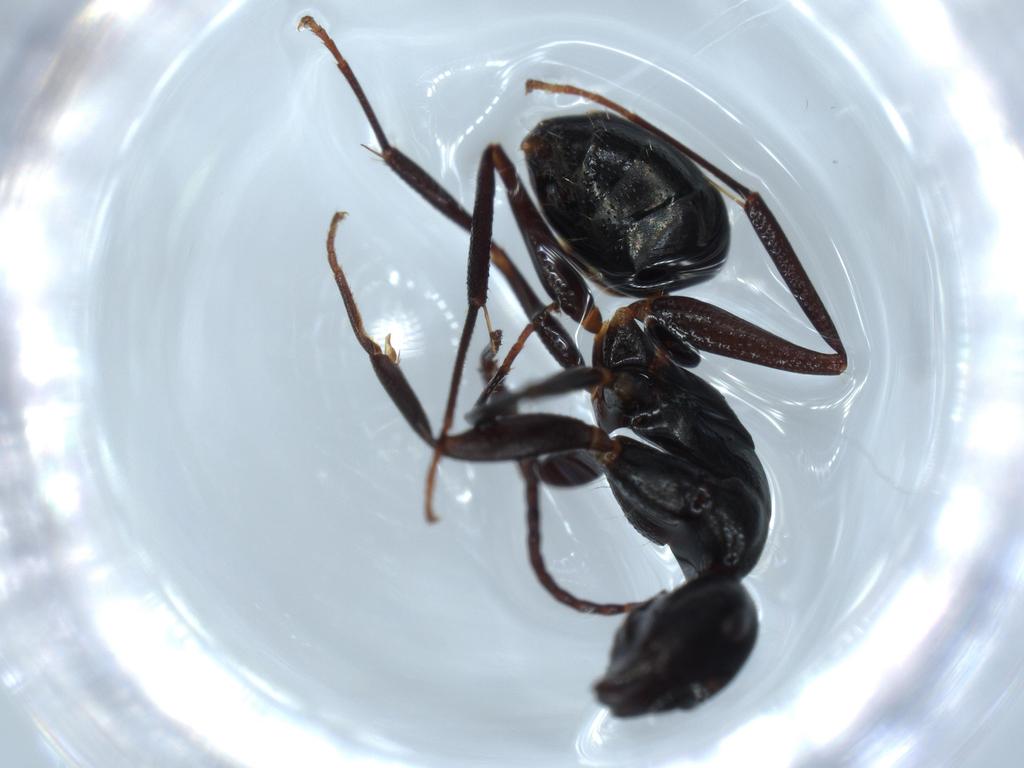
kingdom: Animalia
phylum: Arthropoda
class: Insecta
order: Hymenoptera
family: Formicidae
